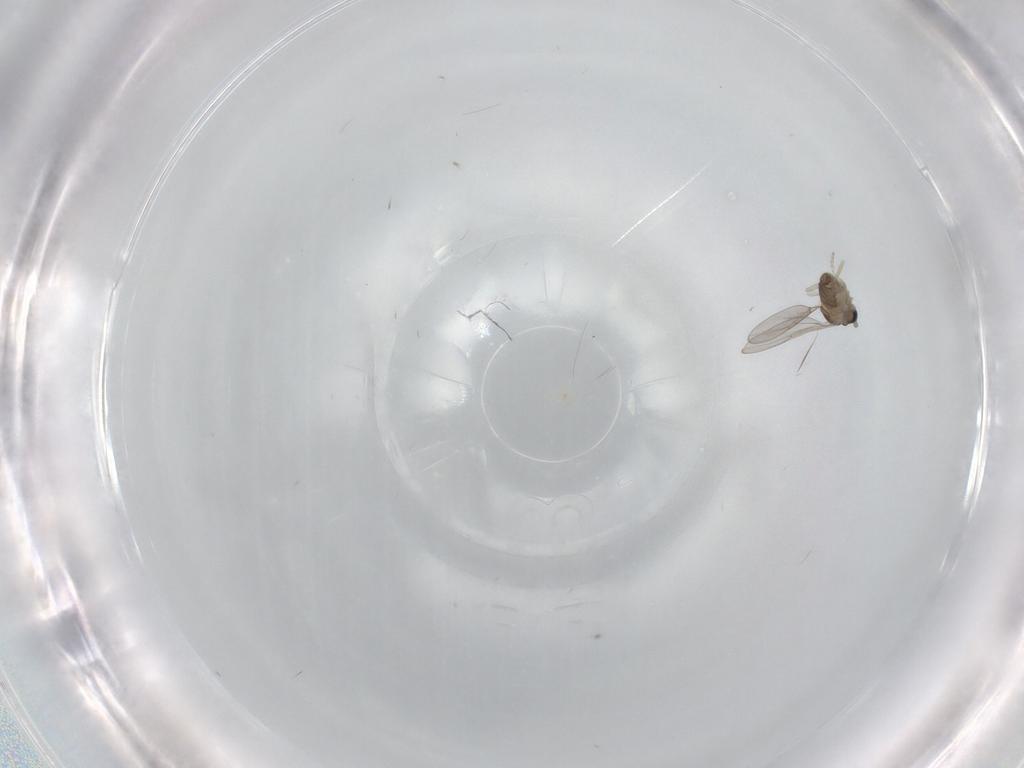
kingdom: Animalia
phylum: Arthropoda
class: Insecta
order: Diptera
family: Cecidomyiidae
